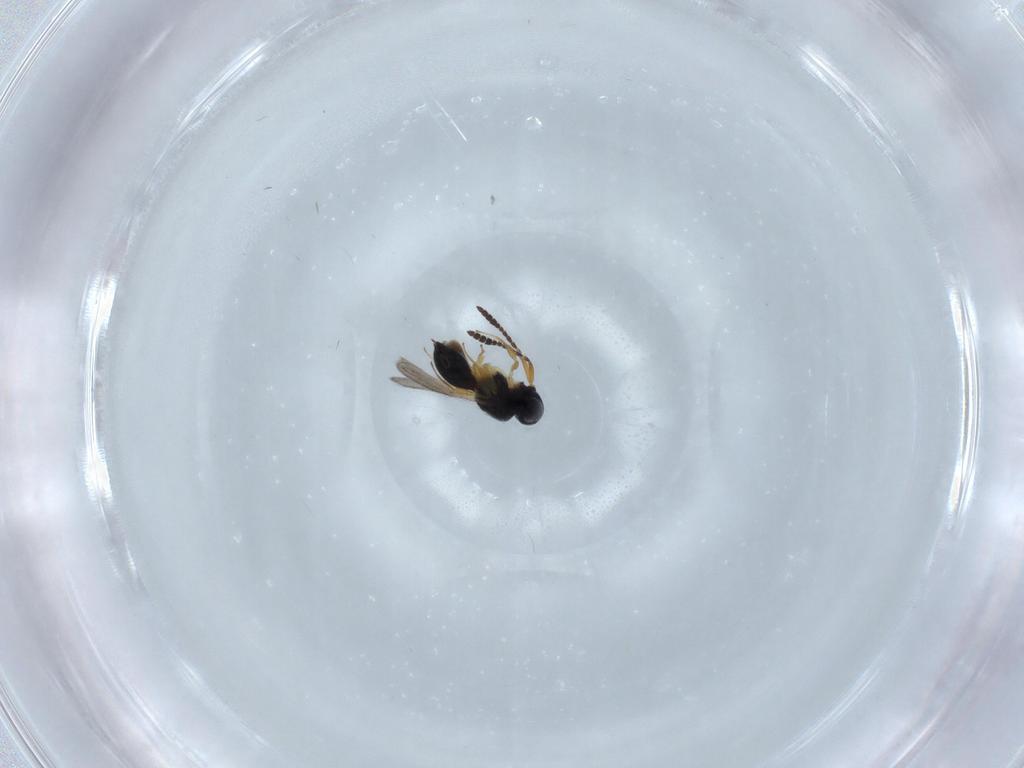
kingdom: Animalia
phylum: Arthropoda
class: Insecta
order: Hymenoptera
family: Scelionidae
